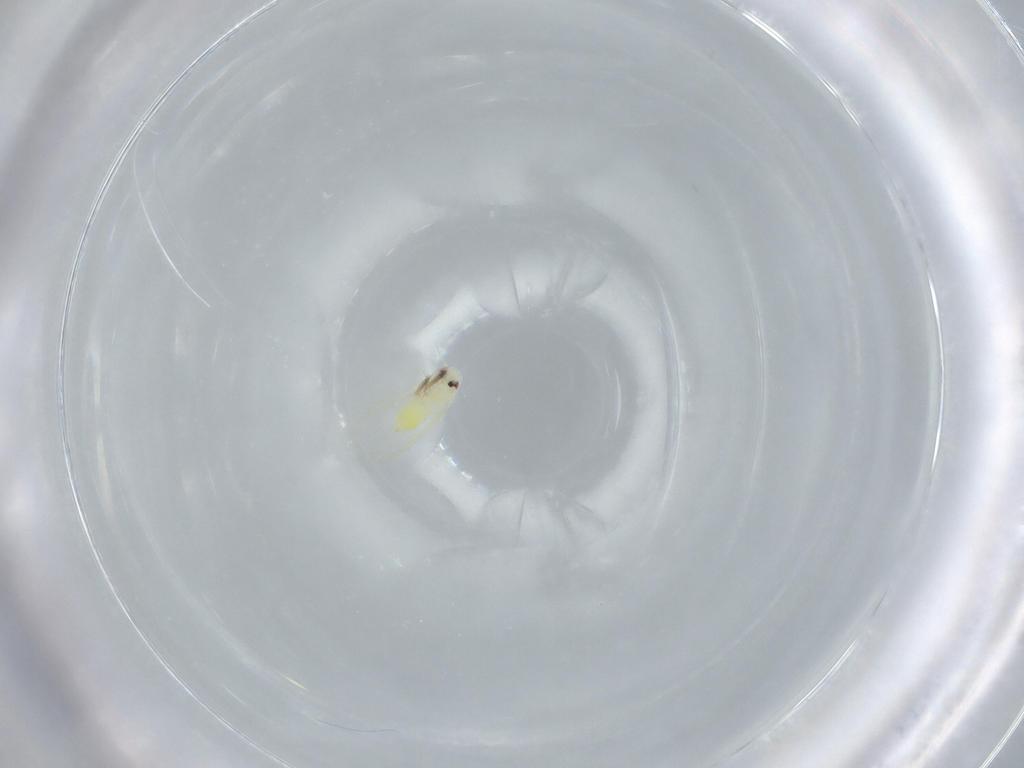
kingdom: Animalia
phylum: Arthropoda
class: Insecta
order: Hemiptera
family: Aleyrodidae
